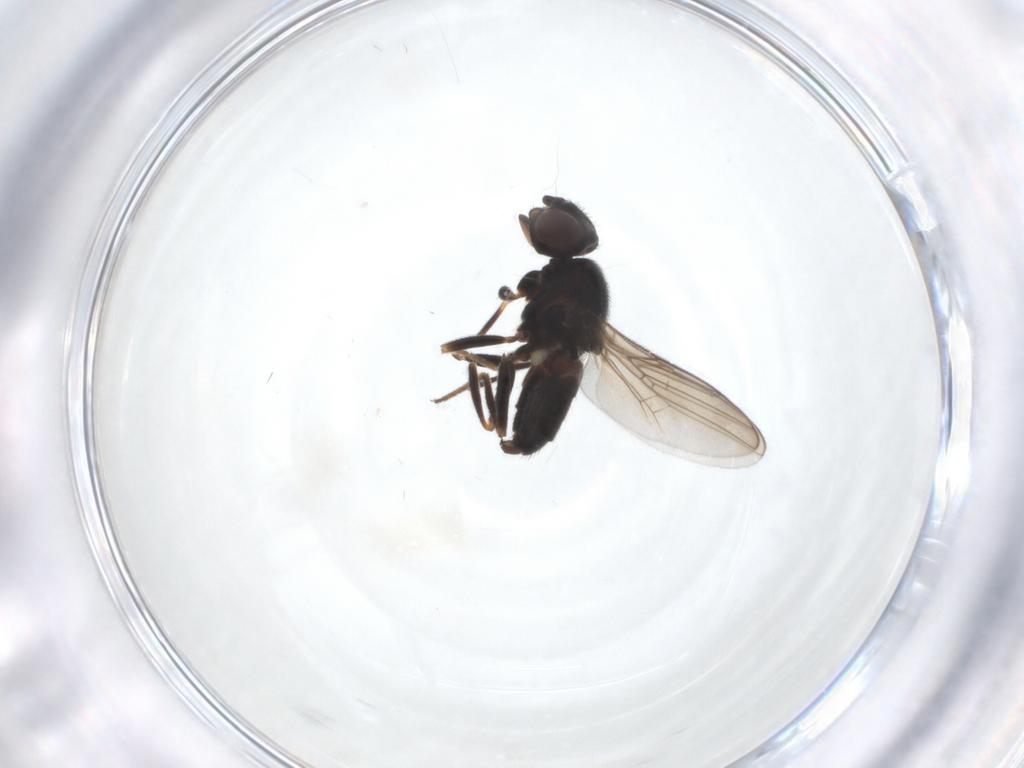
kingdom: Animalia
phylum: Arthropoda
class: Insecta
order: Diptera
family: Chloropidae
